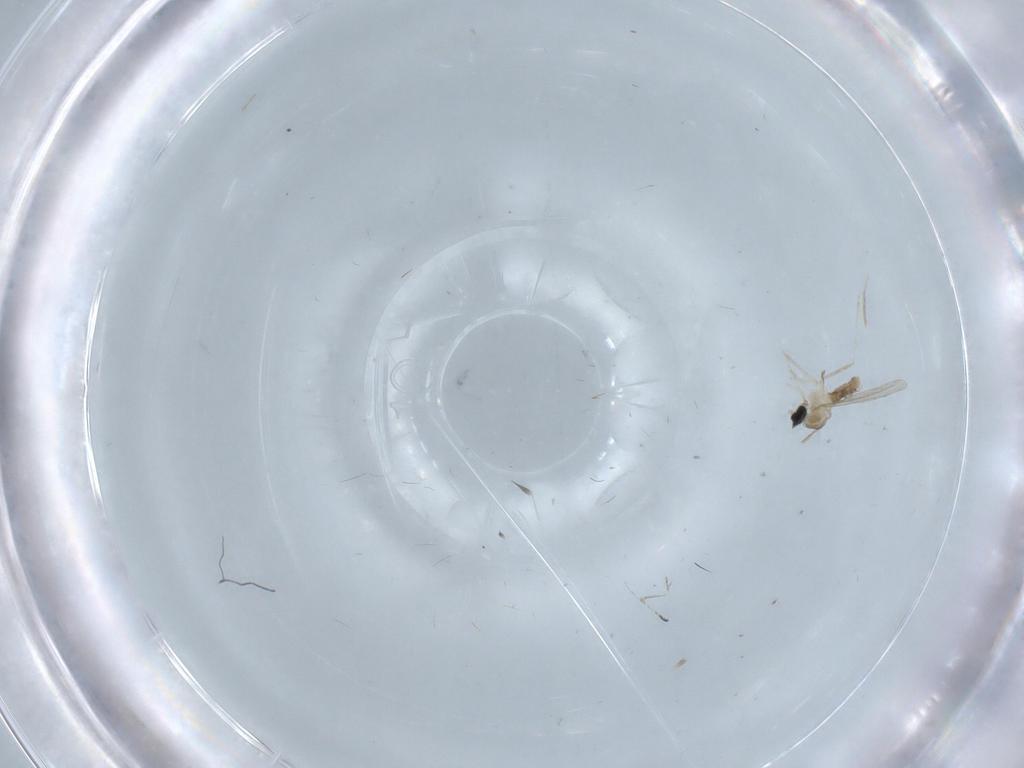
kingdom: Animalia
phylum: Arthropoda
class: Insecta
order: Diptera
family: Cecidomyiidae
